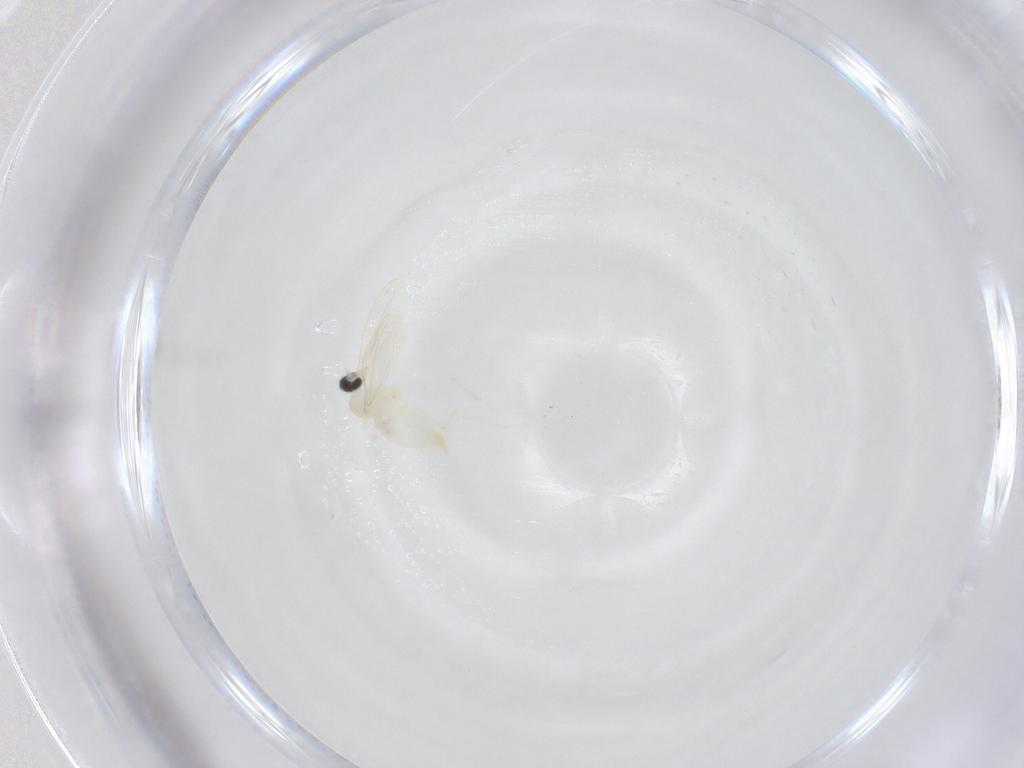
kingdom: Animalia
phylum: Arthropoda
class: Insecta
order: Diptera
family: Cecidomyiidae
